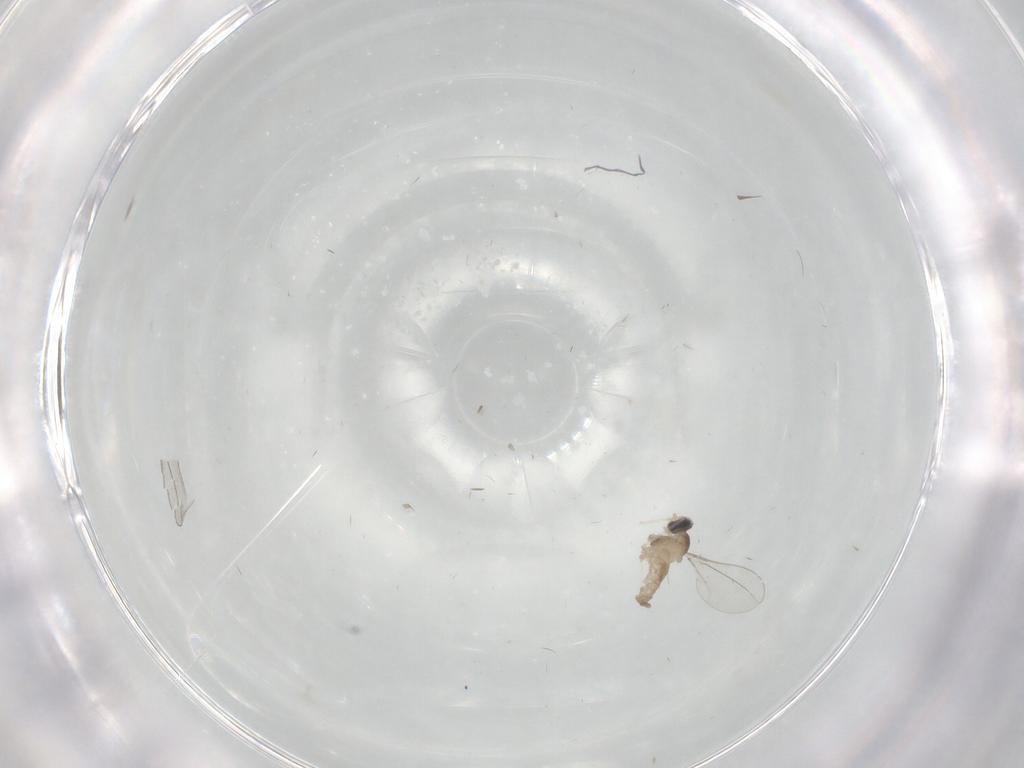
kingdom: Animalia
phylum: Arthropoda
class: Insecta
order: Diptera
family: Cecidomyiidae
